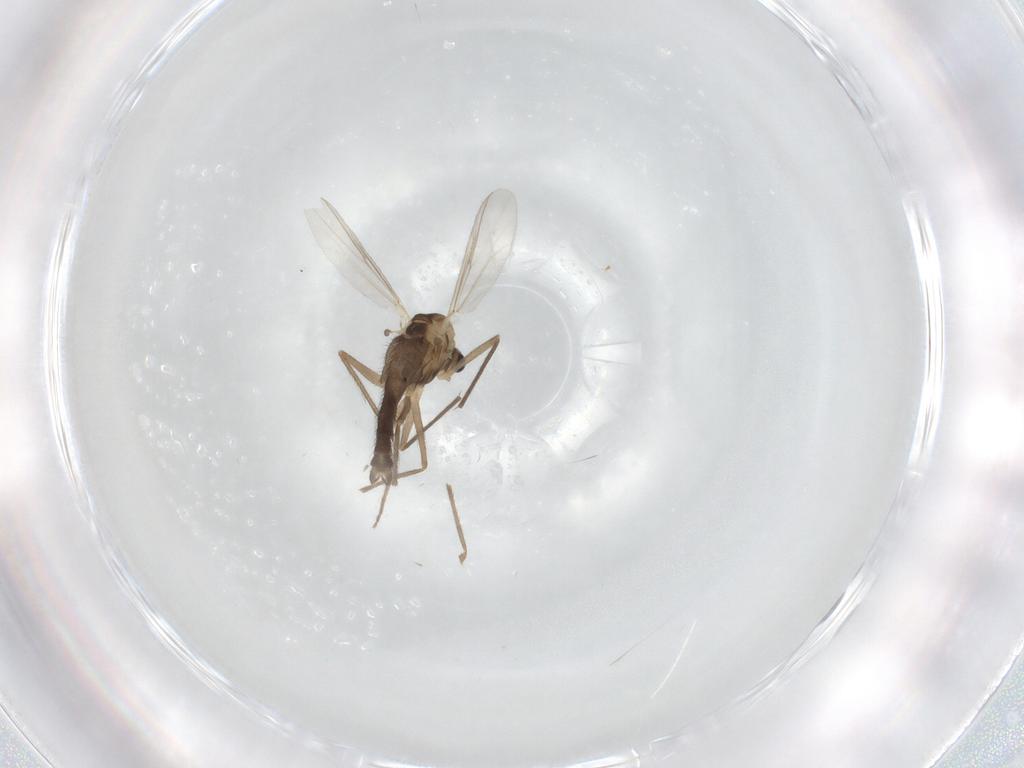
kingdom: Animalia
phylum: Arthropoda
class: Insecta
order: Diptera
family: Chironomidae
